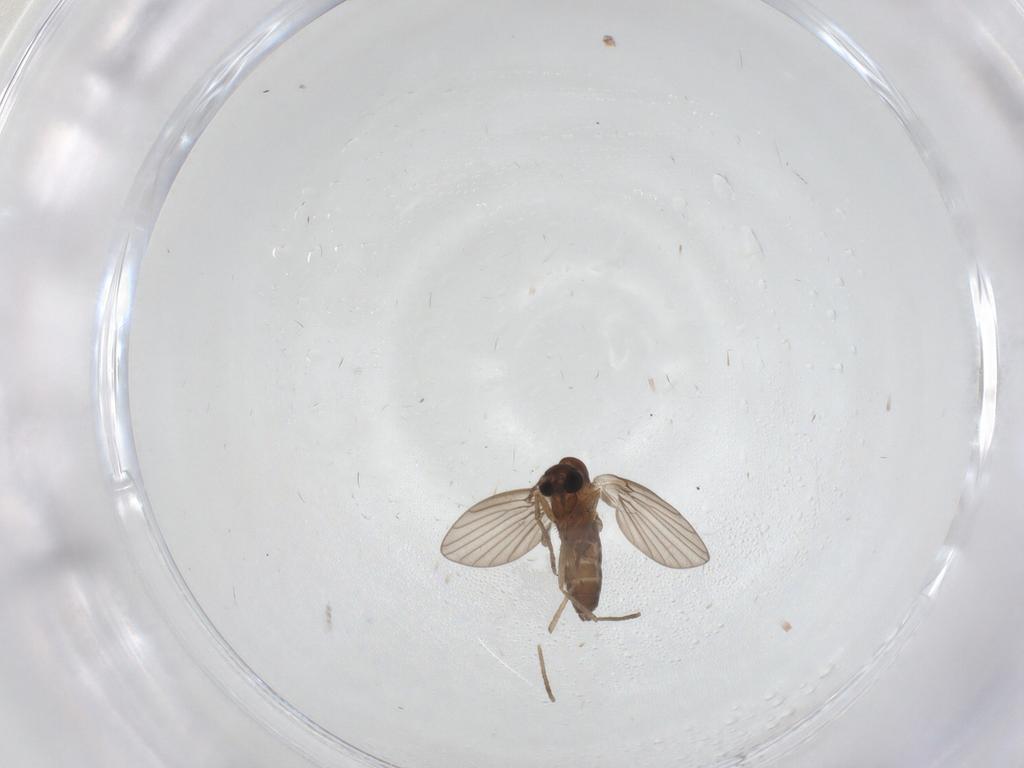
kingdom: Animalia
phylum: Arthropoda
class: Insecta
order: Diptera
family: Psychodidae
